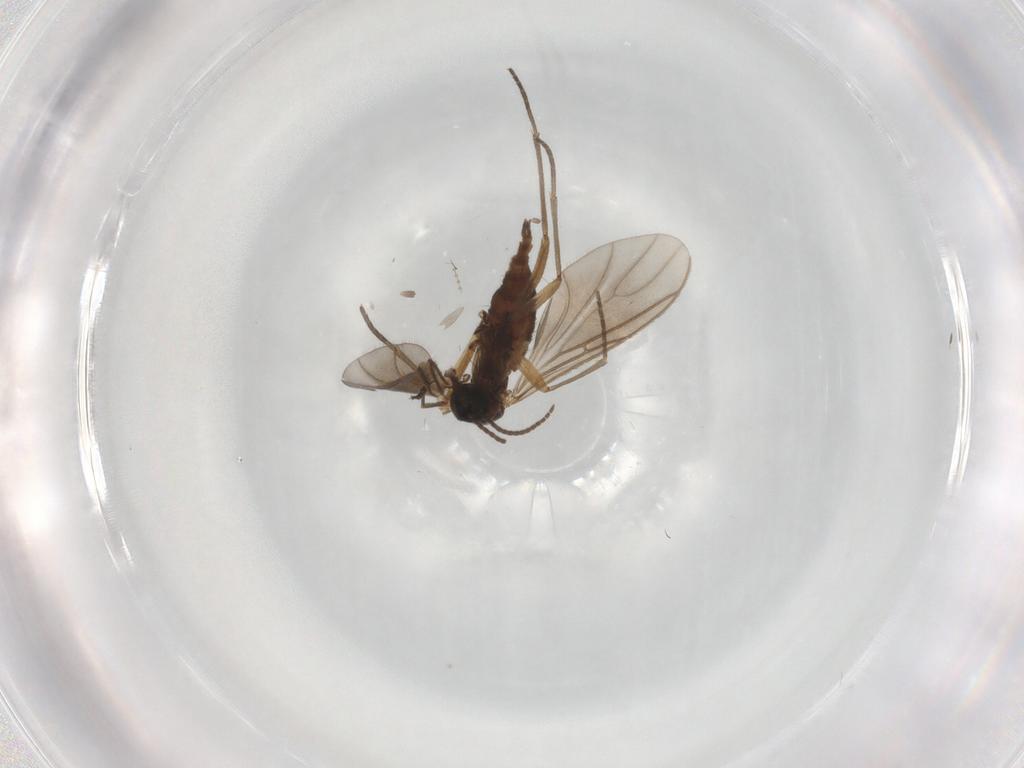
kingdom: Animalia
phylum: Arthropoda
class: Insecta
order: Diptera
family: Sciaridae
